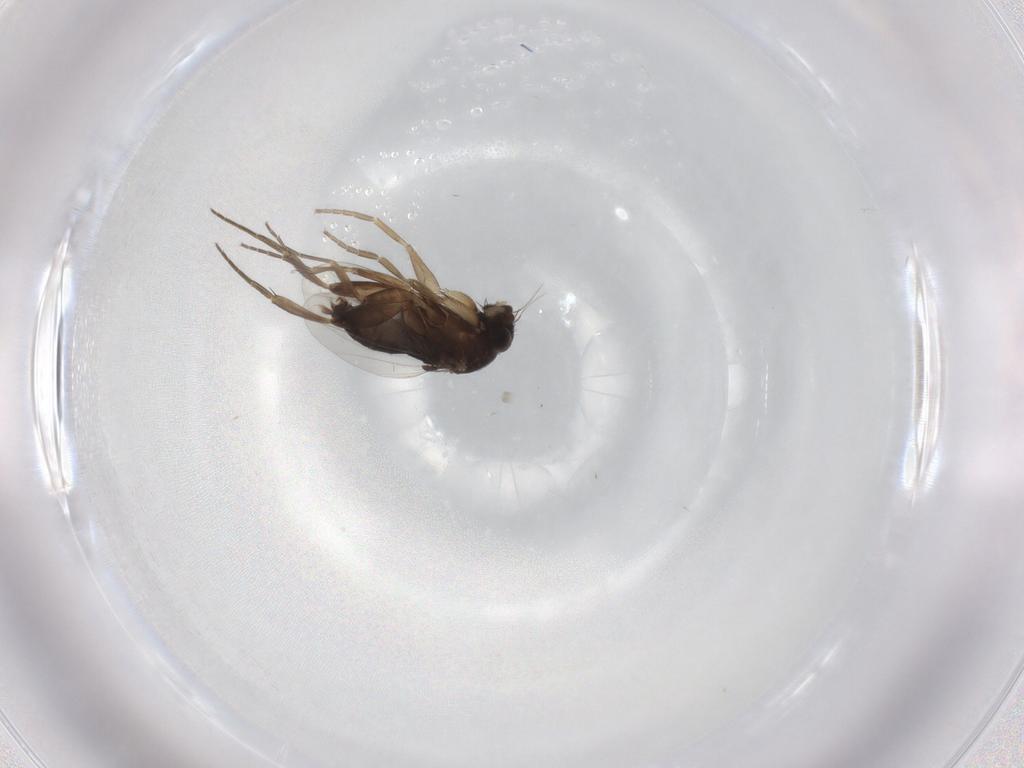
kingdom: Animalia
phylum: Arthropoda
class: Insecta
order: Diptera
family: Phoridae
